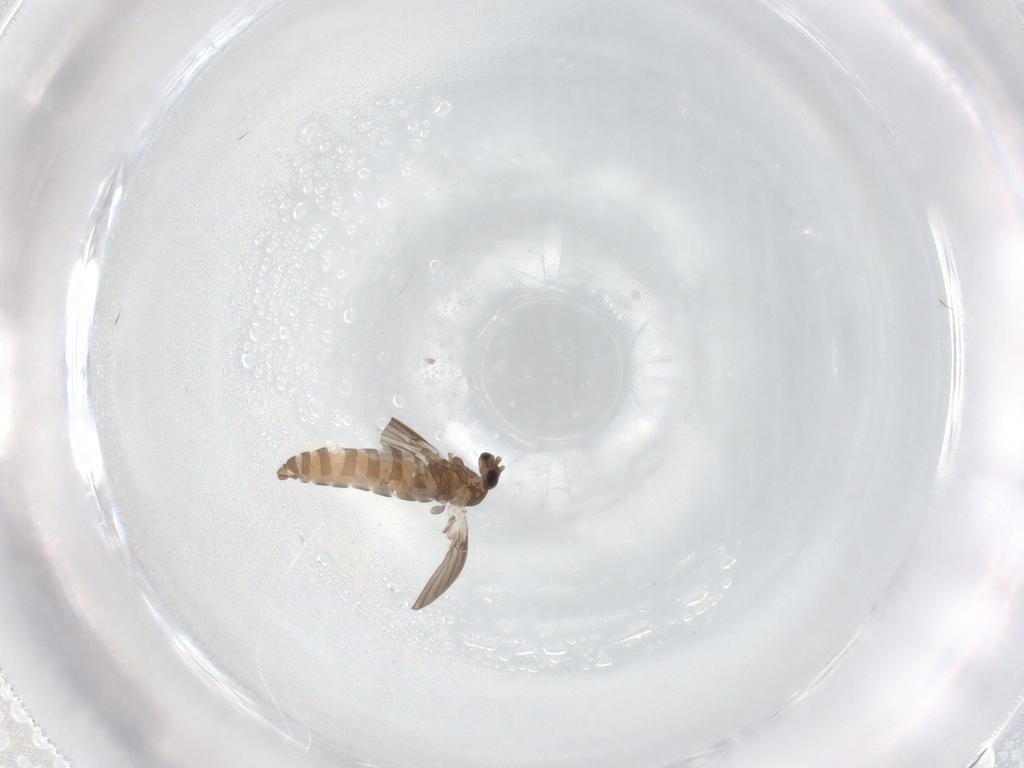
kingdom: Animalia
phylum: Arthropoda
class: Insecta
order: Diptera
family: Psychodidae
